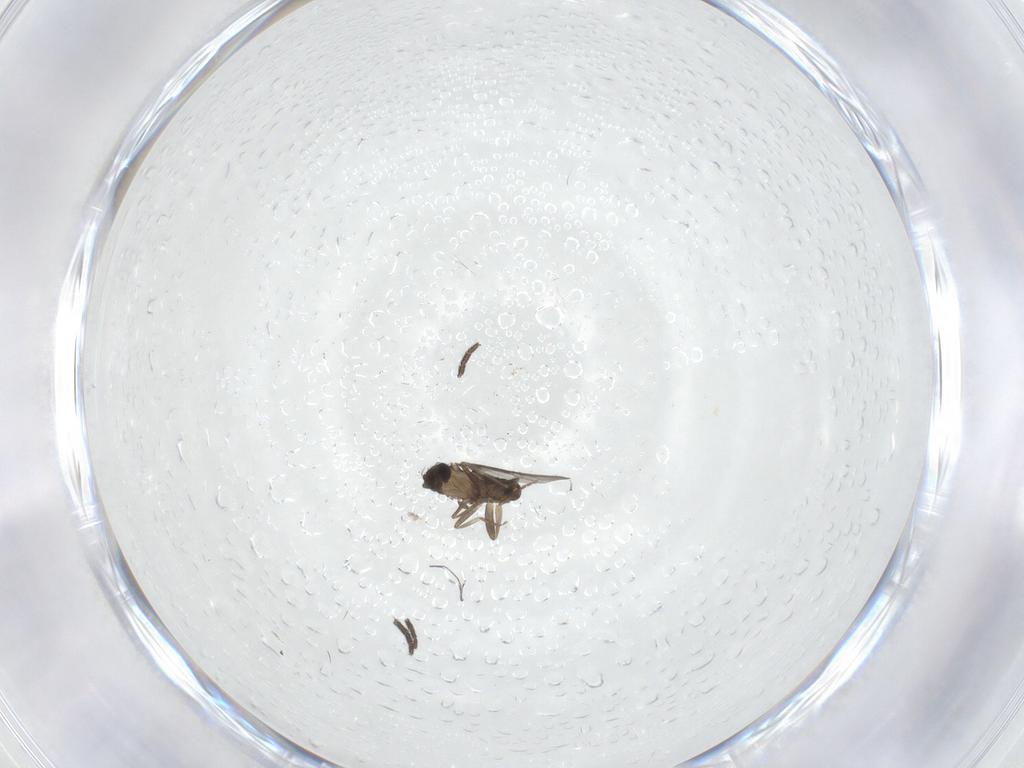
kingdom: Animalia
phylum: Arthropoda
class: Insecta
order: Diptera
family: Sciaridae
